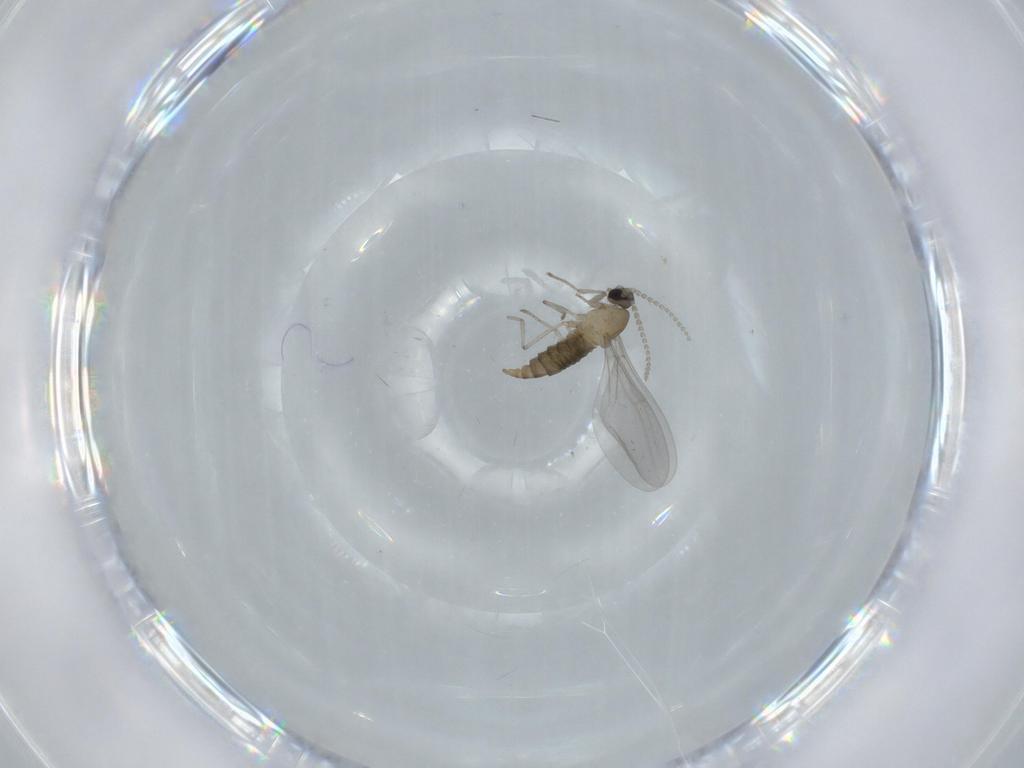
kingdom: Animalia
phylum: Arthropoda
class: Insecta
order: Diptera
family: Cecidomyiidae
